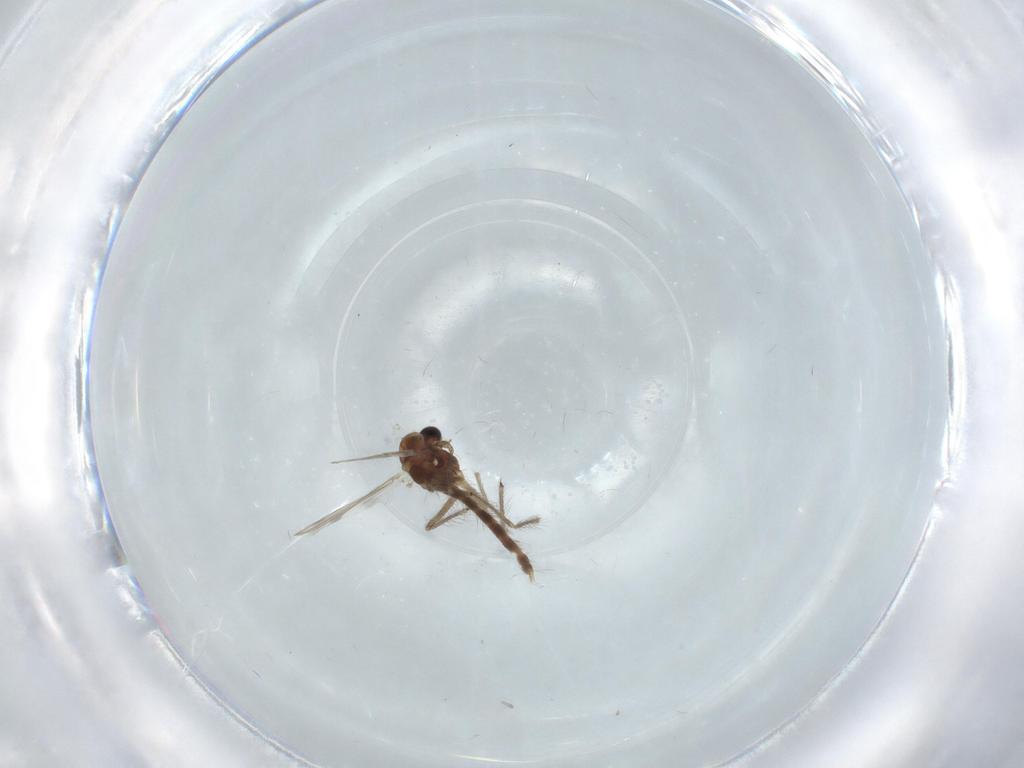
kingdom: Animalia
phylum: Arthropoda
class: Insecta
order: Diptera
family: Chironomidae
